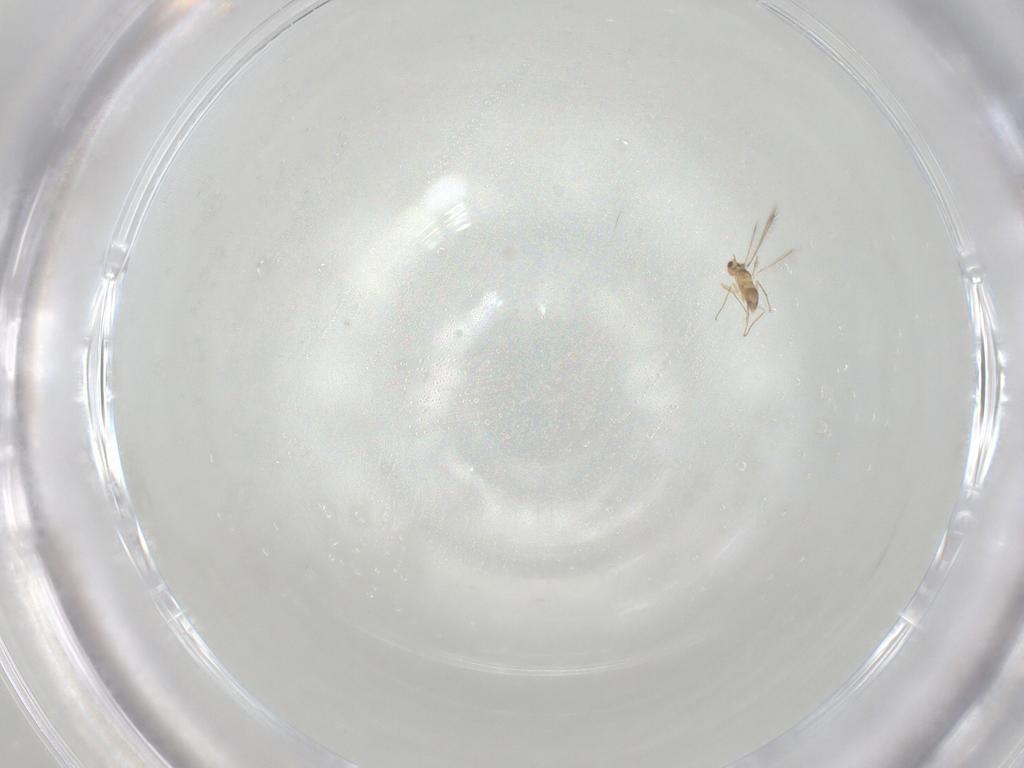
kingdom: Animalia
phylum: Arthropoda
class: Insecta
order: Hymenoptera
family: Mymaridae
